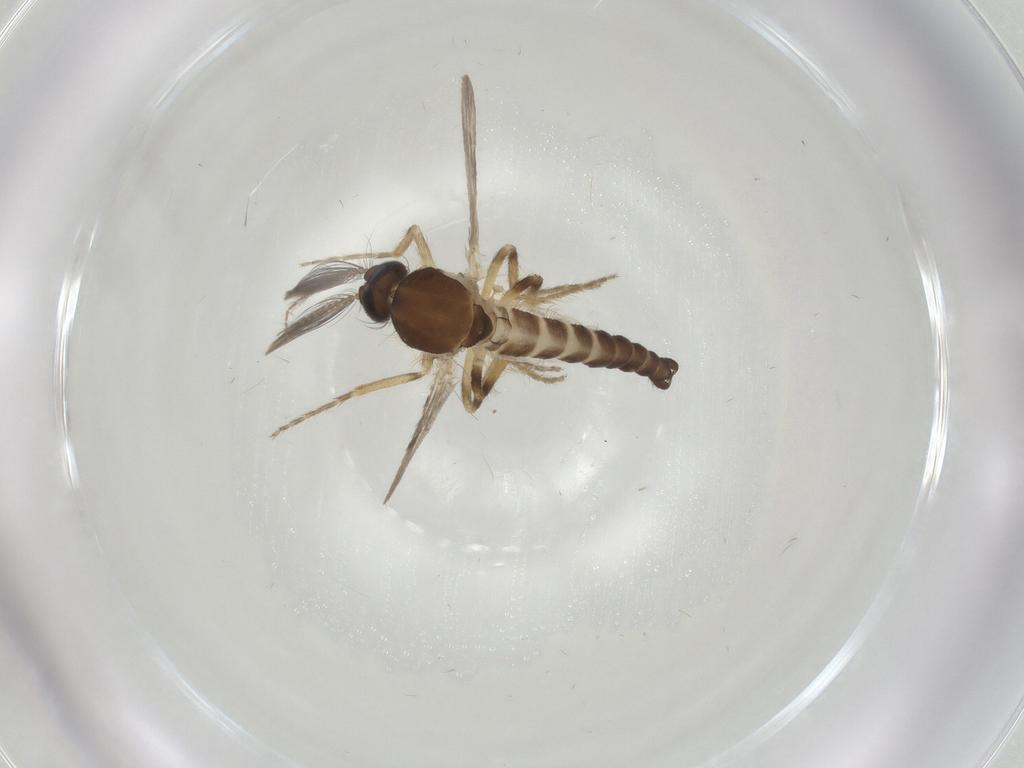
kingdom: Animalia
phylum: Arthropoda
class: Insecta
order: Diptera
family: Ceratopogonidae
